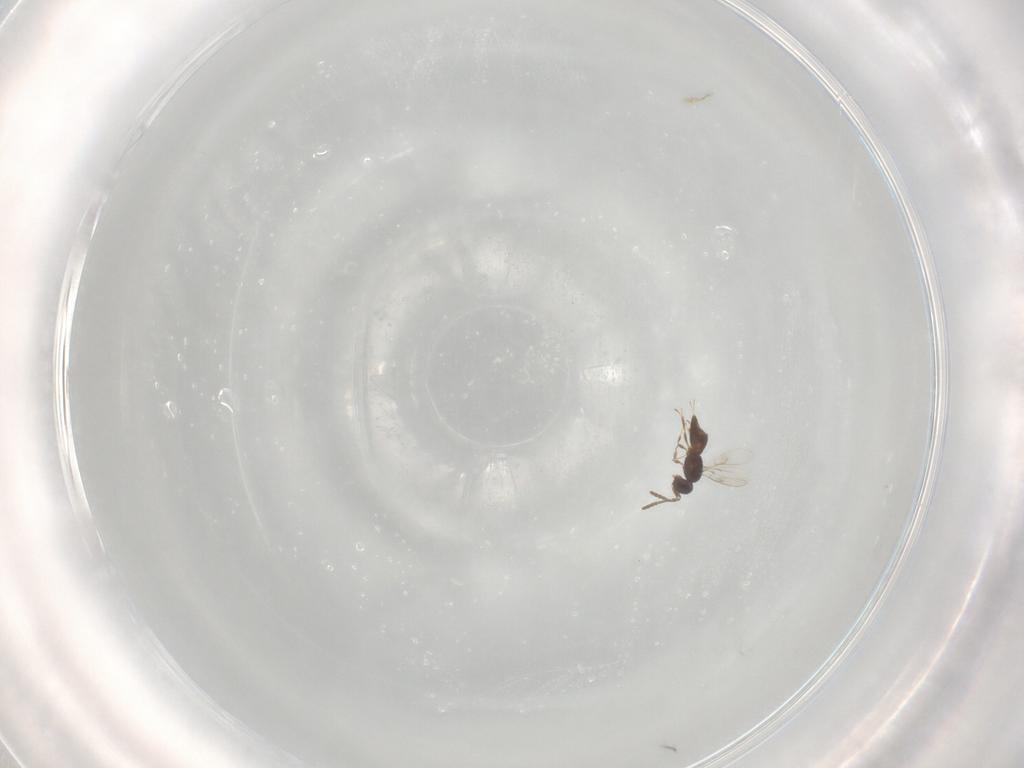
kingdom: Animalia
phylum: Arthropoda
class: Insecta
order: Hymenoptera
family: Scelionidae
